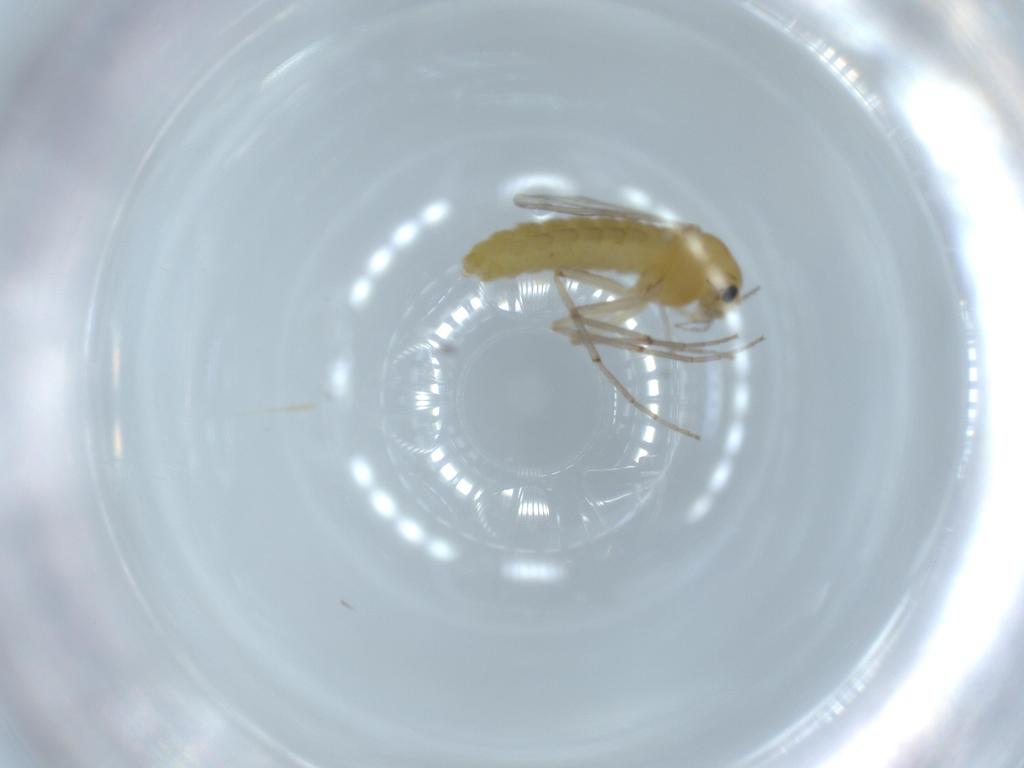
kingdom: Animalia
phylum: Arthropoda
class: Insecta
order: Diptera
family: Chironomidae
